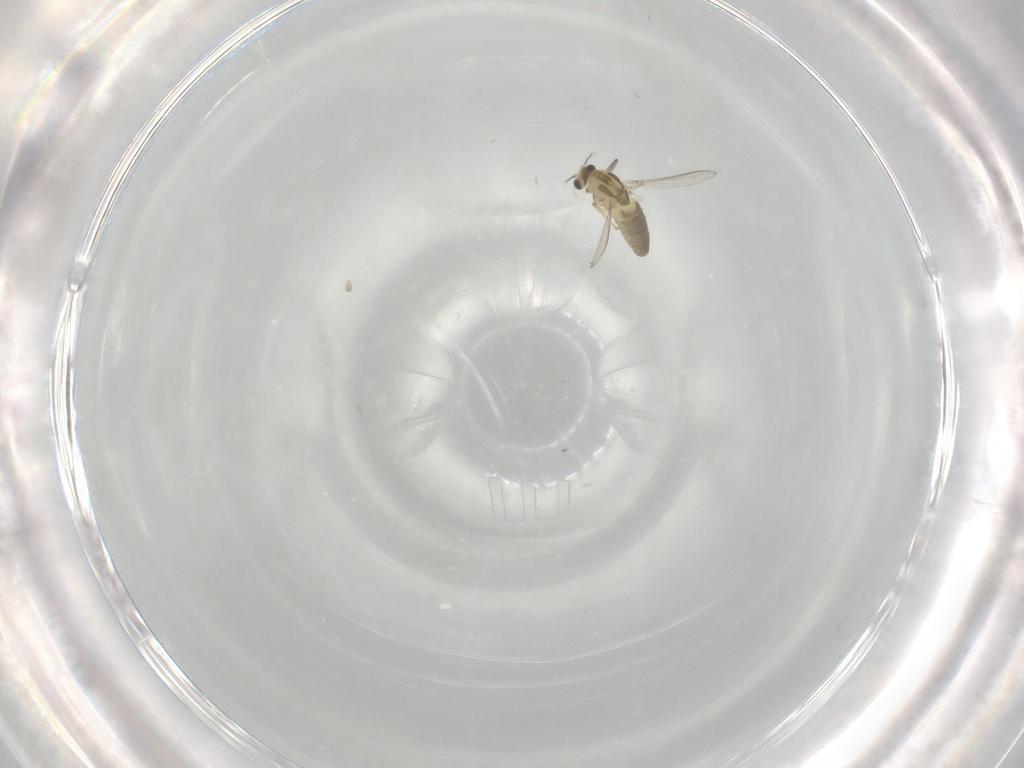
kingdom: Animalia
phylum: Arthropoda
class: Insecta
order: Diptera
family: Chironomidae
